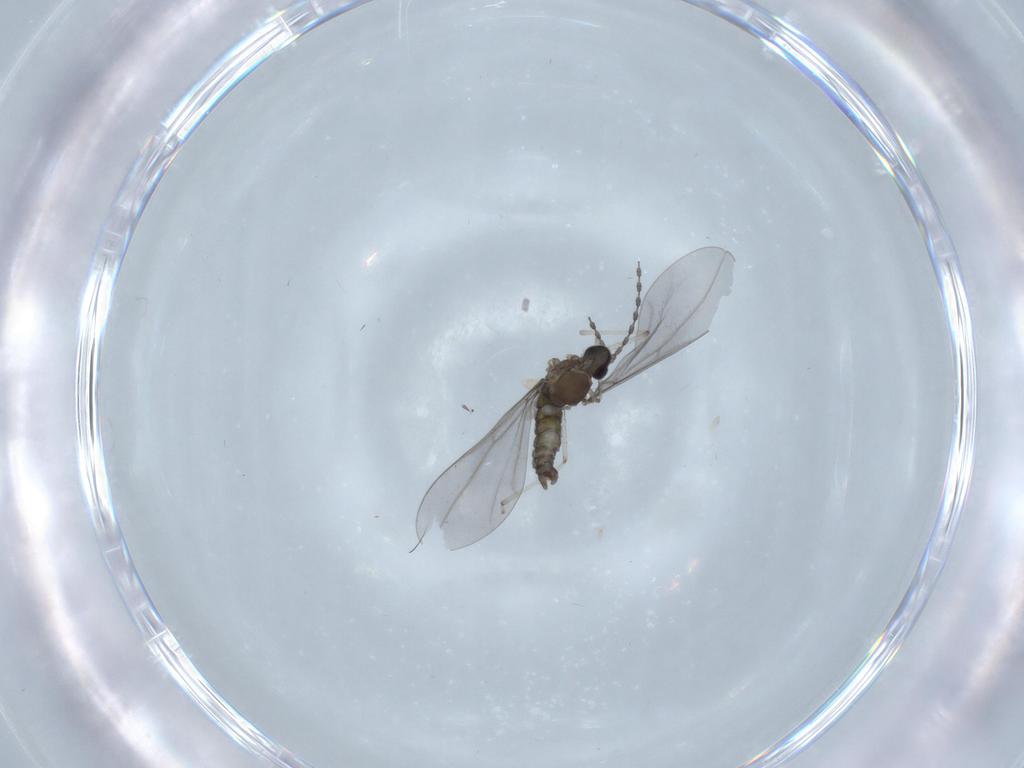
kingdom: Animalia
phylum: Arthropoda
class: Insecta
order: Diptera
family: Cecidomyiidae
